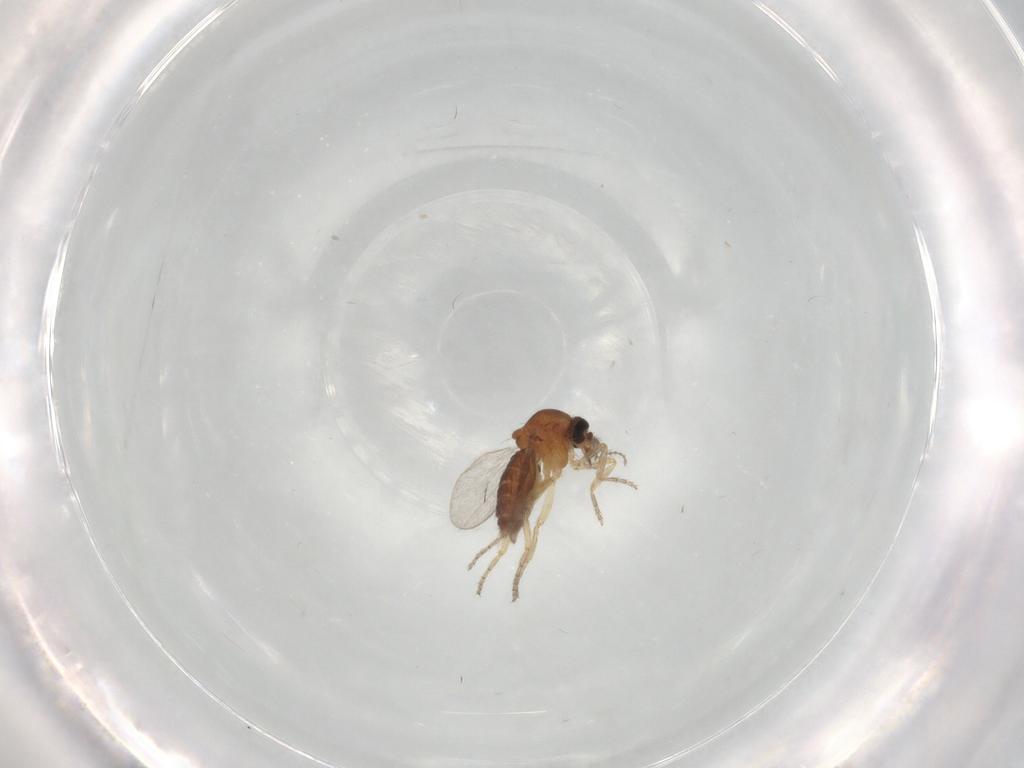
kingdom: Animalia
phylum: Arthropoda
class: Insecta
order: Diptera
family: Ceratopogonidae
